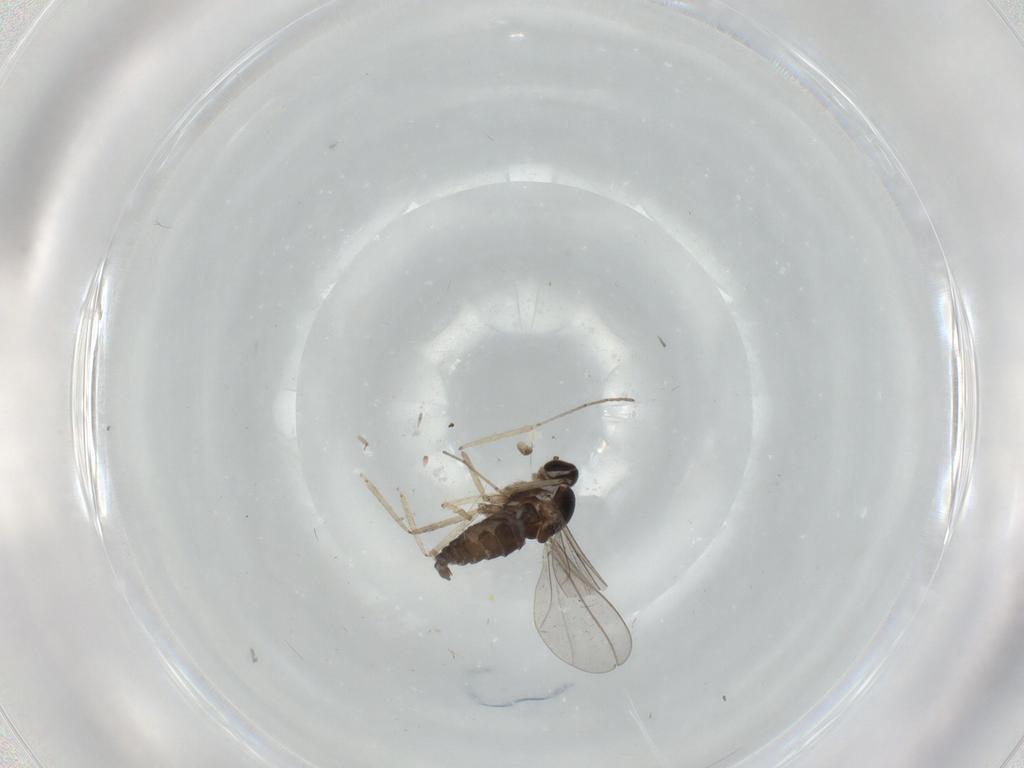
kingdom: Animalia
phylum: Arthropoda
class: Insecta
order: Diptera
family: Cecidomyiidae
